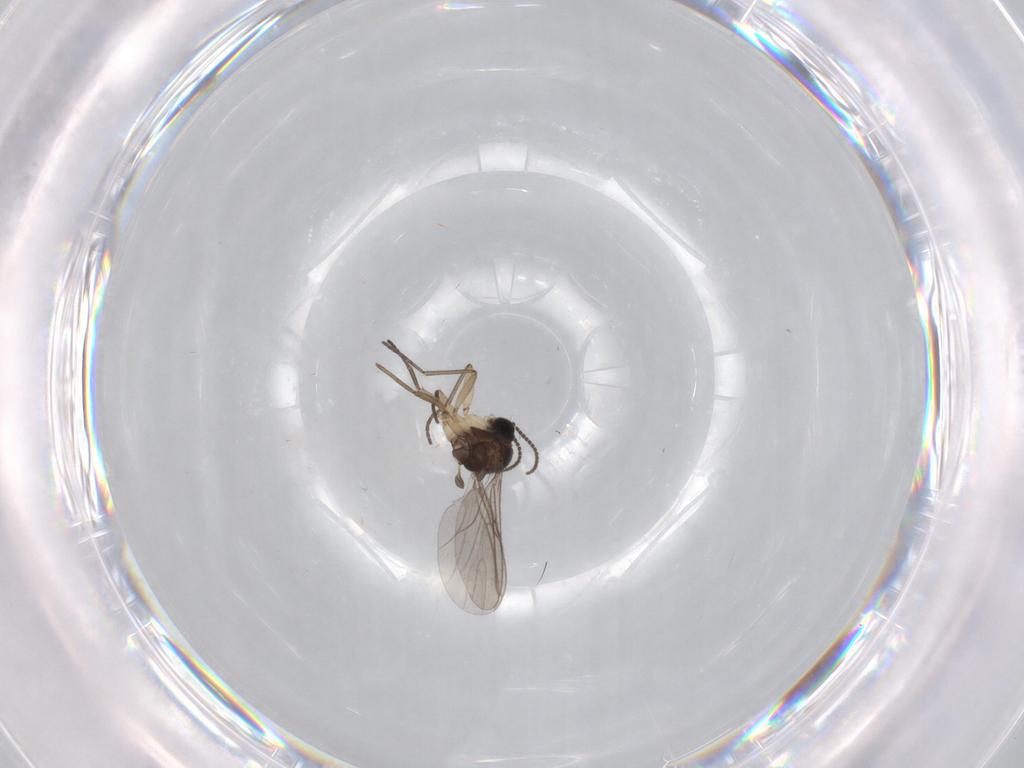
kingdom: Animalia
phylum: Arthropoda
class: Insecta
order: Diptera
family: Sciaridae
